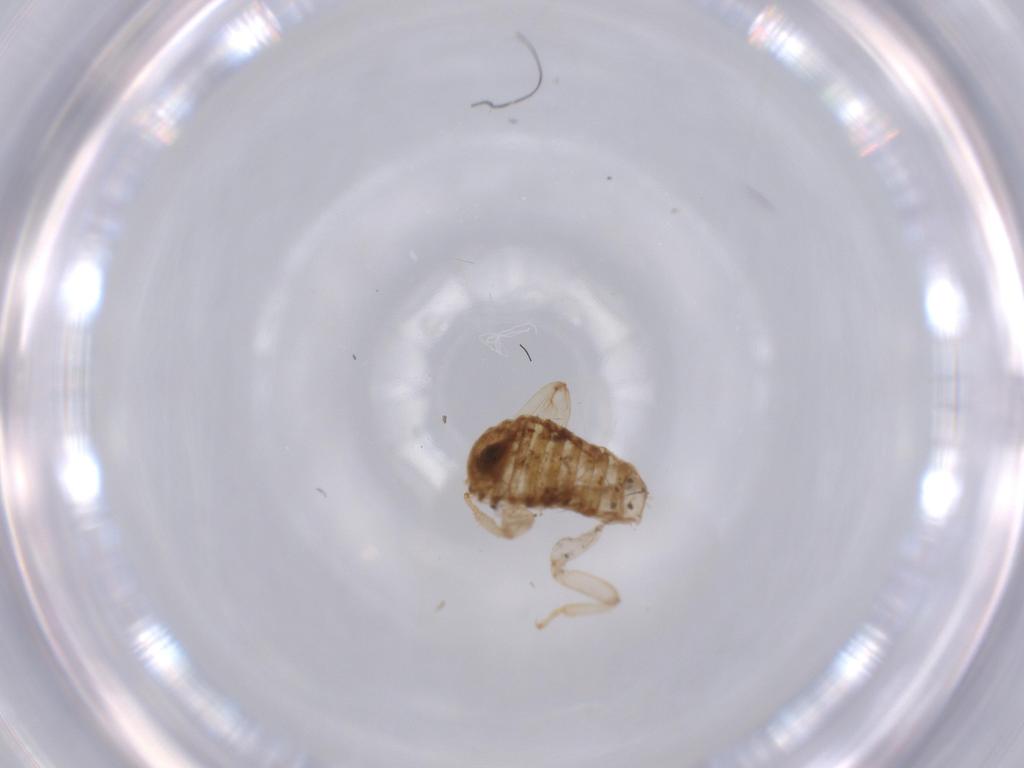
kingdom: Animalia
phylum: Arthropoda
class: Insecta
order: Blattodea
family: Rhinotermitidae
